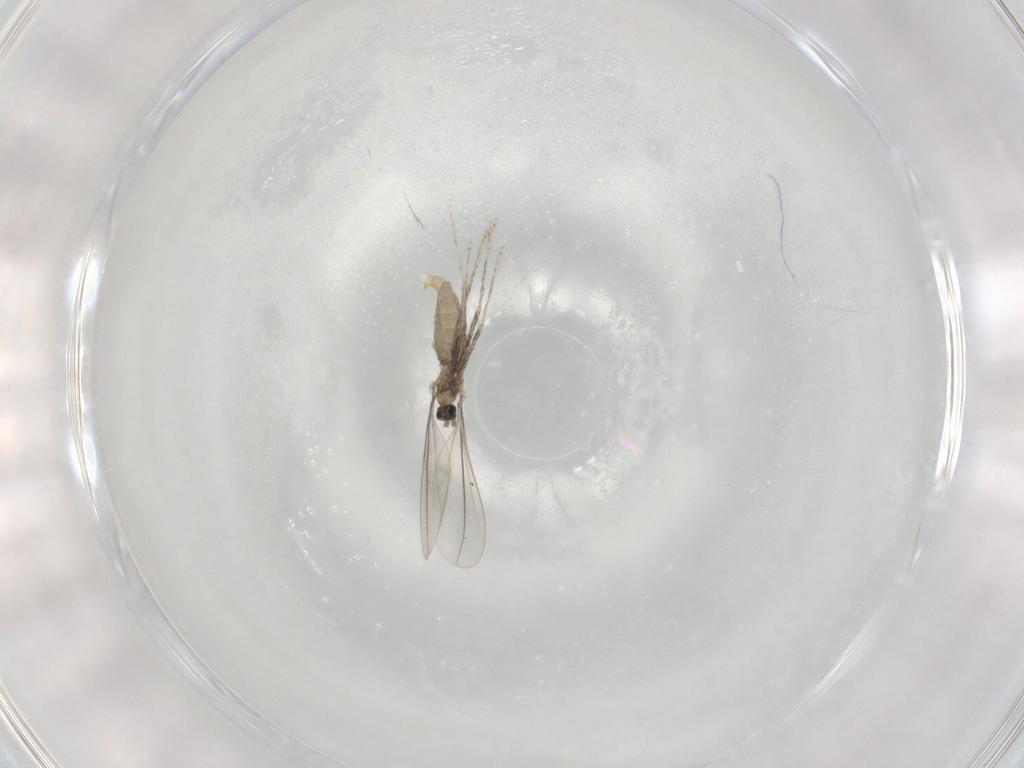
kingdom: Animalia
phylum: Arthropoda
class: Insecta
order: Diptera
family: Cecidomyiidae
